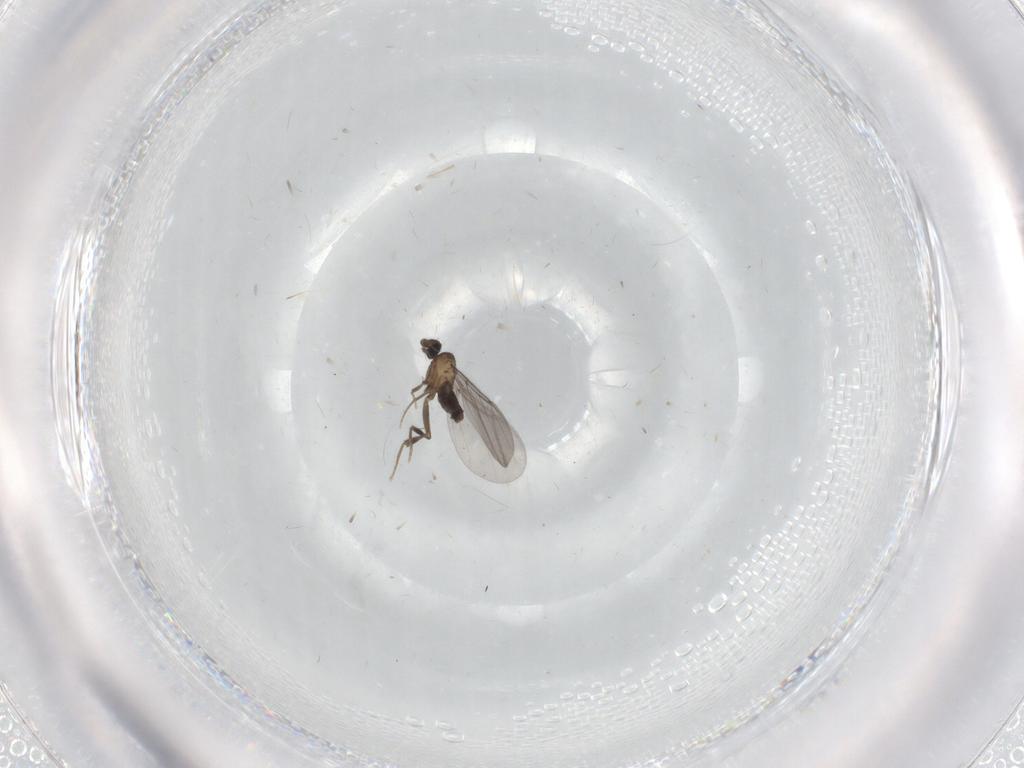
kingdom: Animalia
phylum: Arthropoda
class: Insecta
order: Diptera
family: Phoridae
